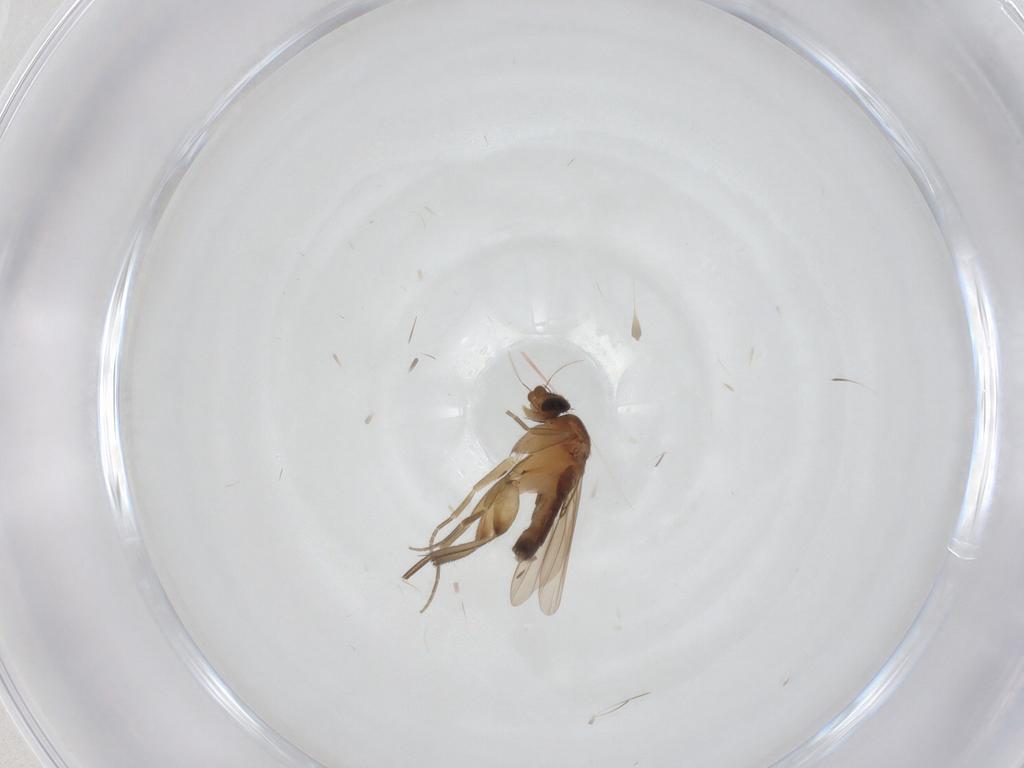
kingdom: Animalia
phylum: Arthropoda
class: Insecta
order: Diptera
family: Phoridae
